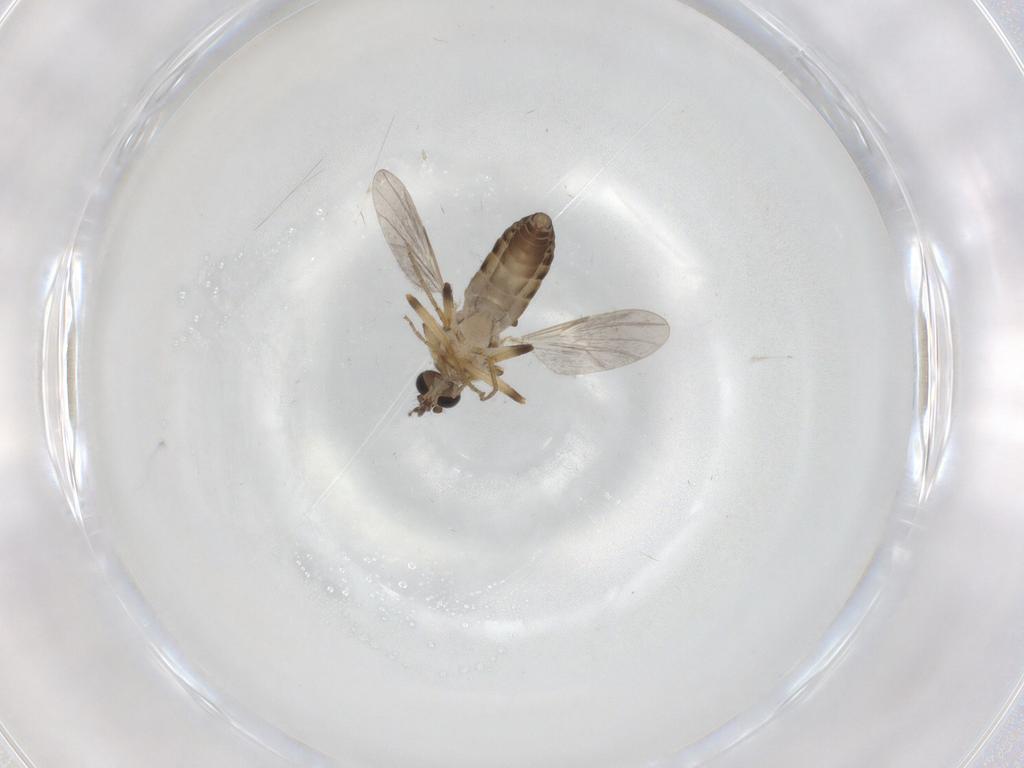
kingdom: Animalia
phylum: Arthropoda
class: Insecta
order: Diptera
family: Ceratopogonidae
